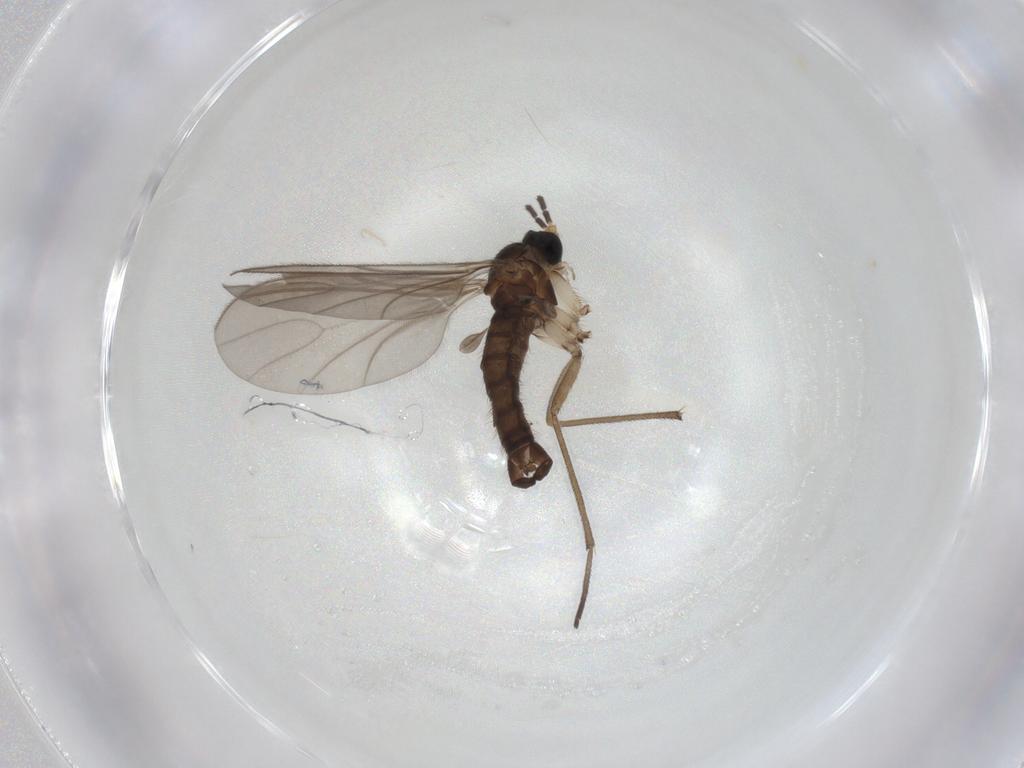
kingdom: Animalia
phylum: Arthropoda
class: Insecta
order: Diptera
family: Sciaridae
